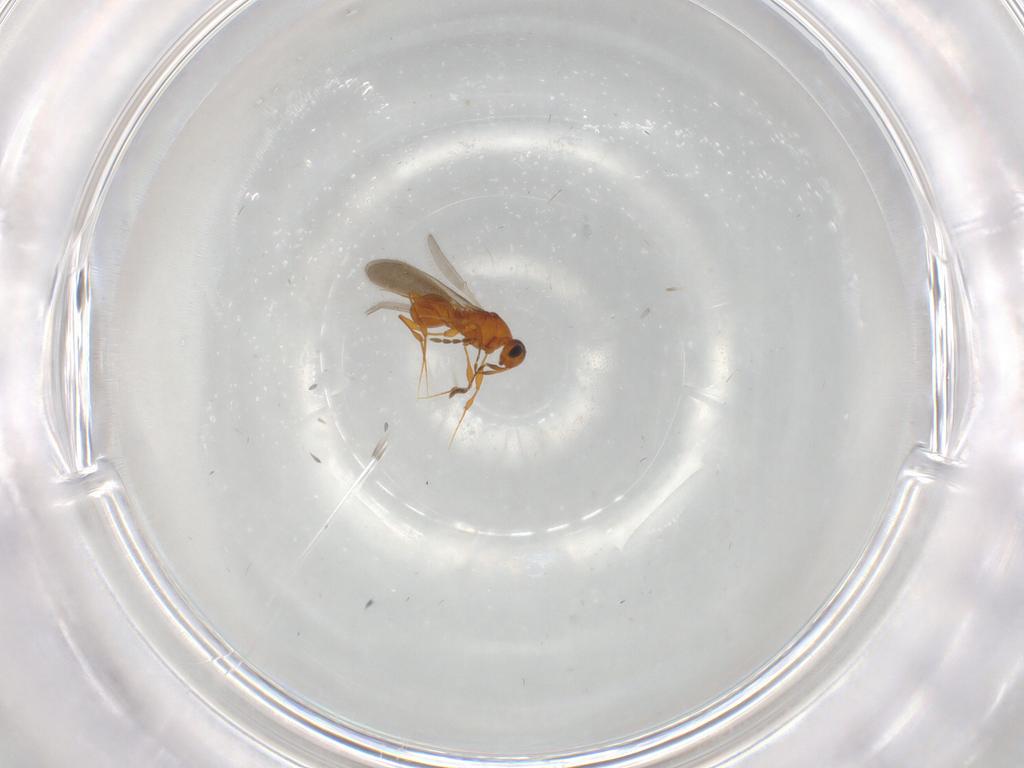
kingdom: Animalia
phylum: Arthropoda
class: Insecta
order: Hymenoptera
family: Platygastridae
